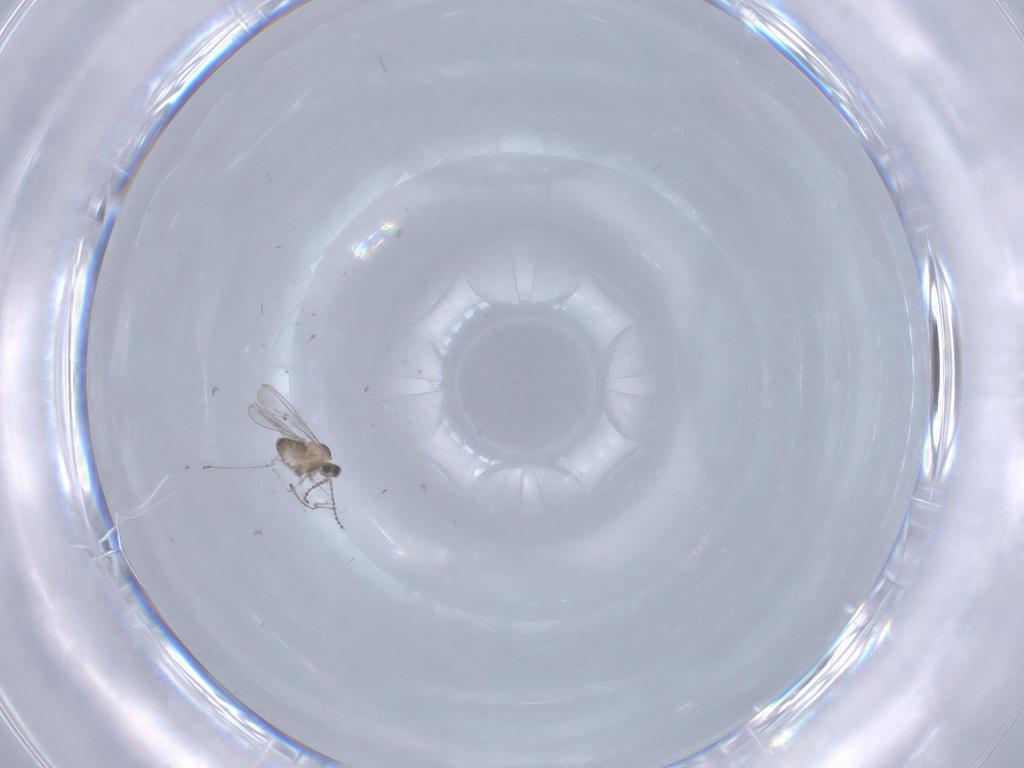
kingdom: Animalia
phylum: Arthropoda
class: Insecta
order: Diptera
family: Cecidomyiidae
